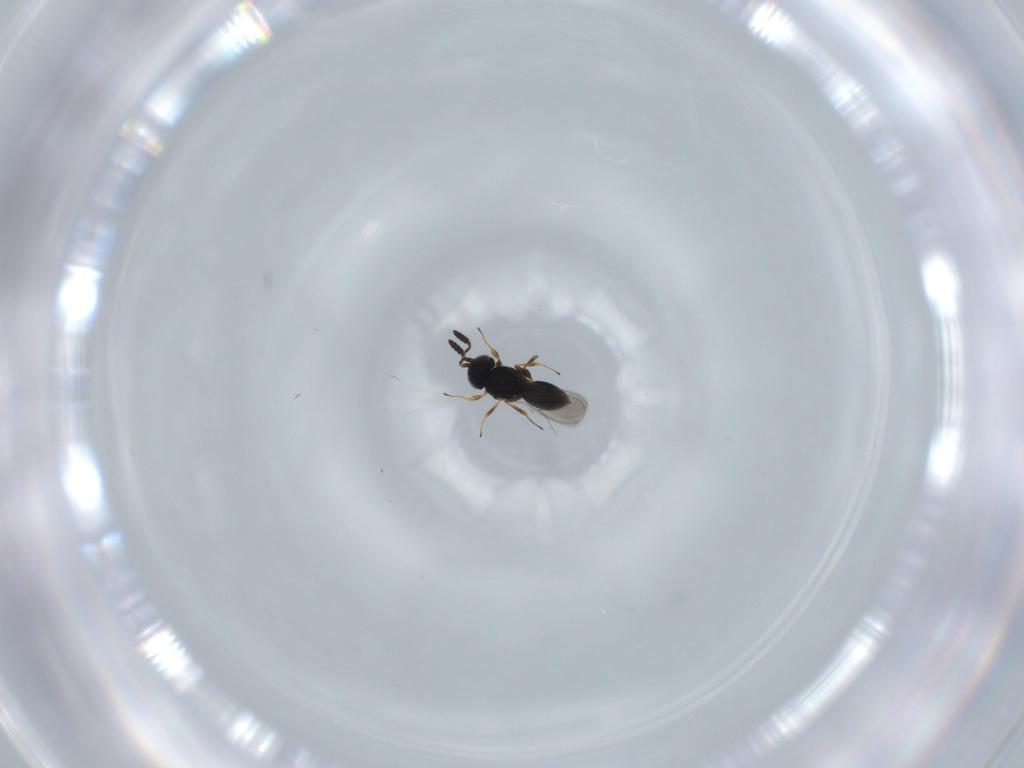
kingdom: Animalia
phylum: Arthropoda
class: Insecta
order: Hymenoptera
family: Scelionidae
